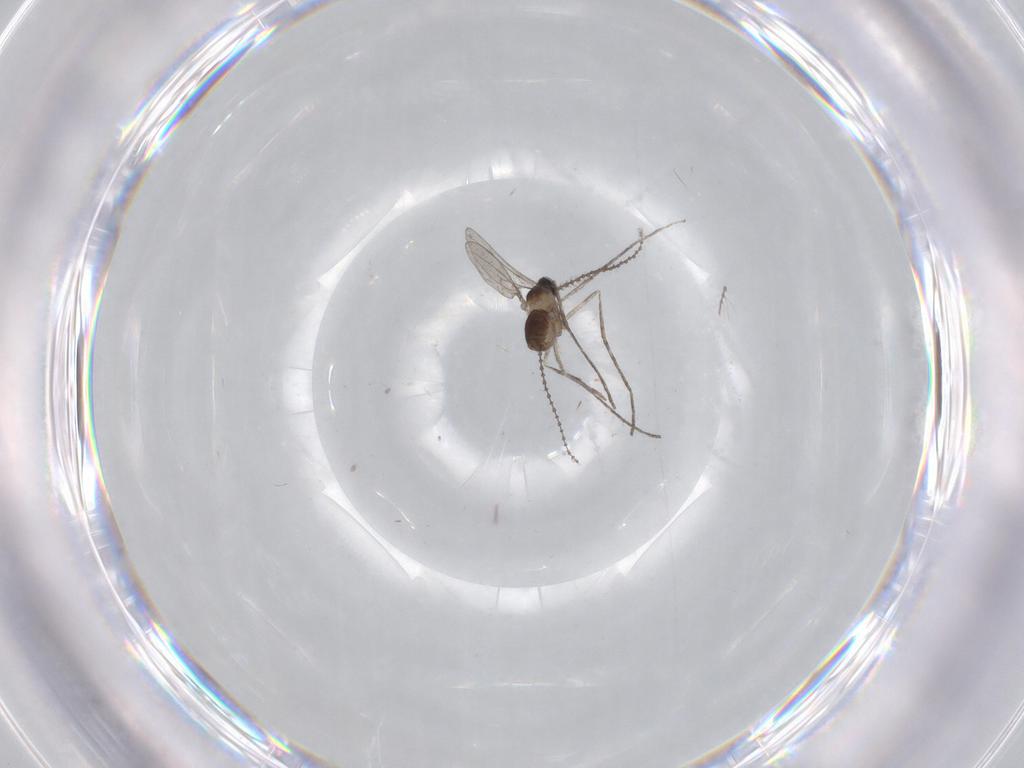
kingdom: Animalia
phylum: Arthropoda
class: Insecta
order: Diptera
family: Cecidomyiidae
